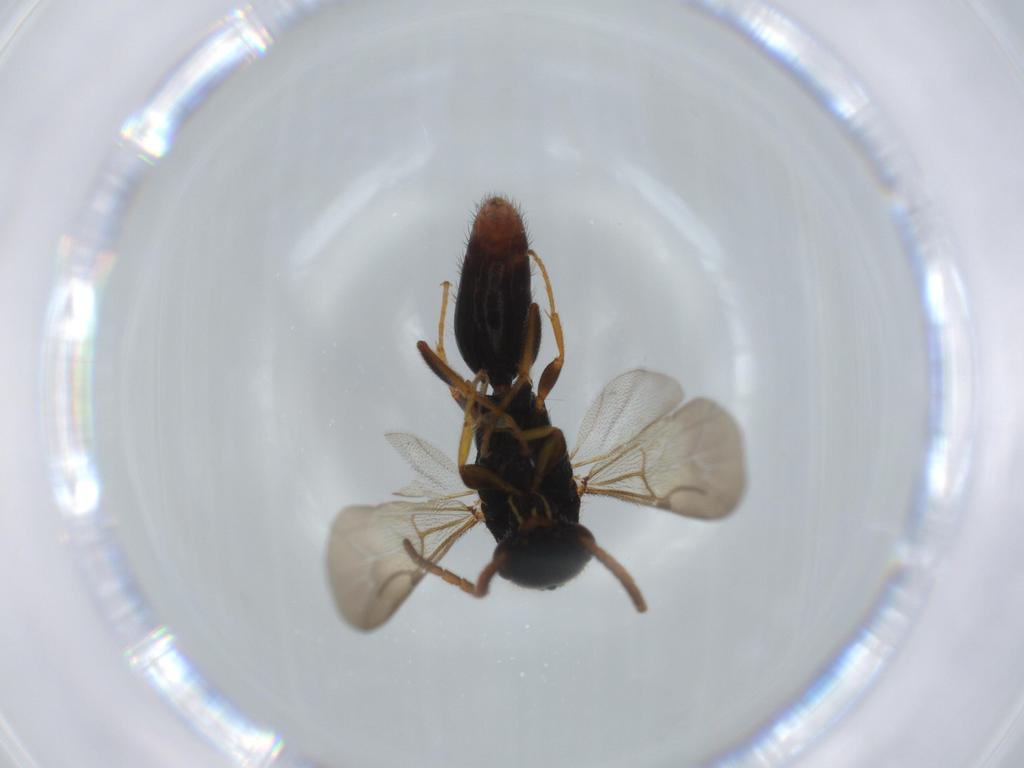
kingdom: Animalia
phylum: Arthropoda
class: Insecta
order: Hymenoptera
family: Bethylidae
